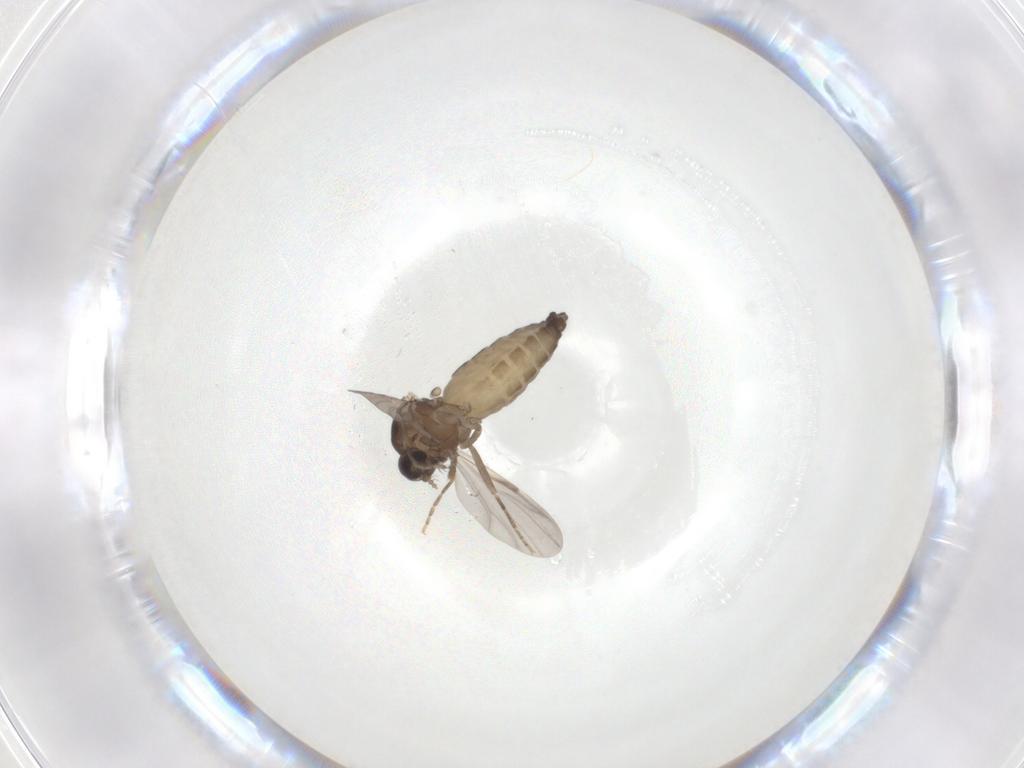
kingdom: Animalia
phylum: Arthropoda
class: Insecta
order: Diptera
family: Ceratopogonidae
